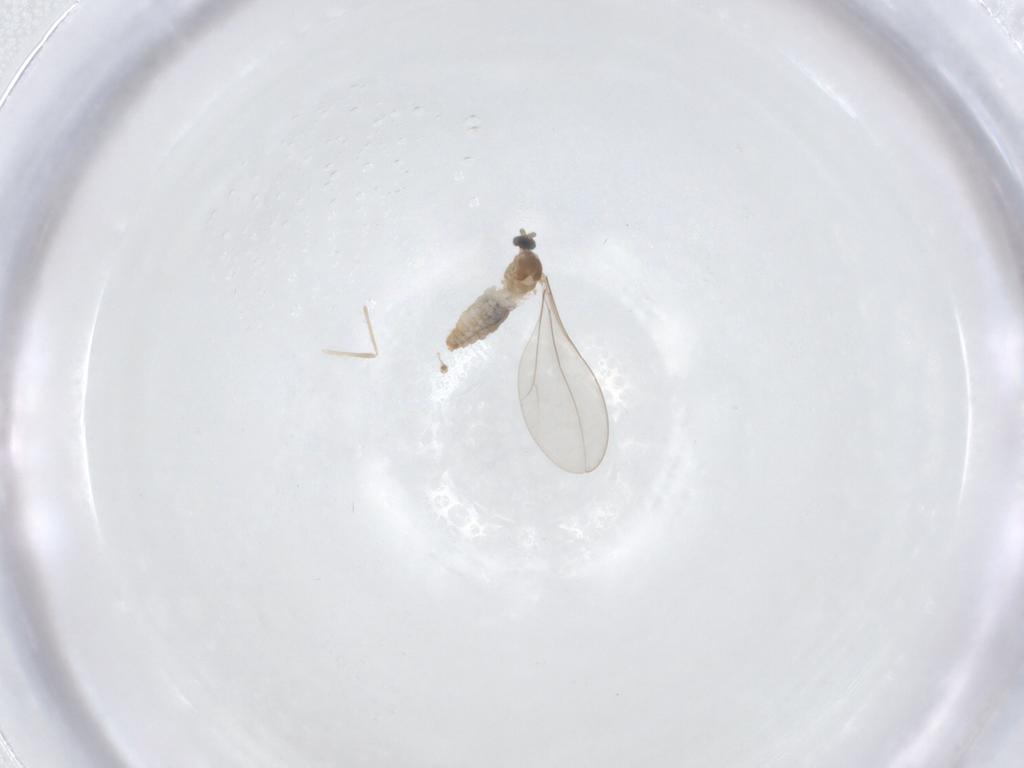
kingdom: Animalia
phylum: Arthropoda
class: Insecta
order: Diptera
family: Cecidomyiidae
